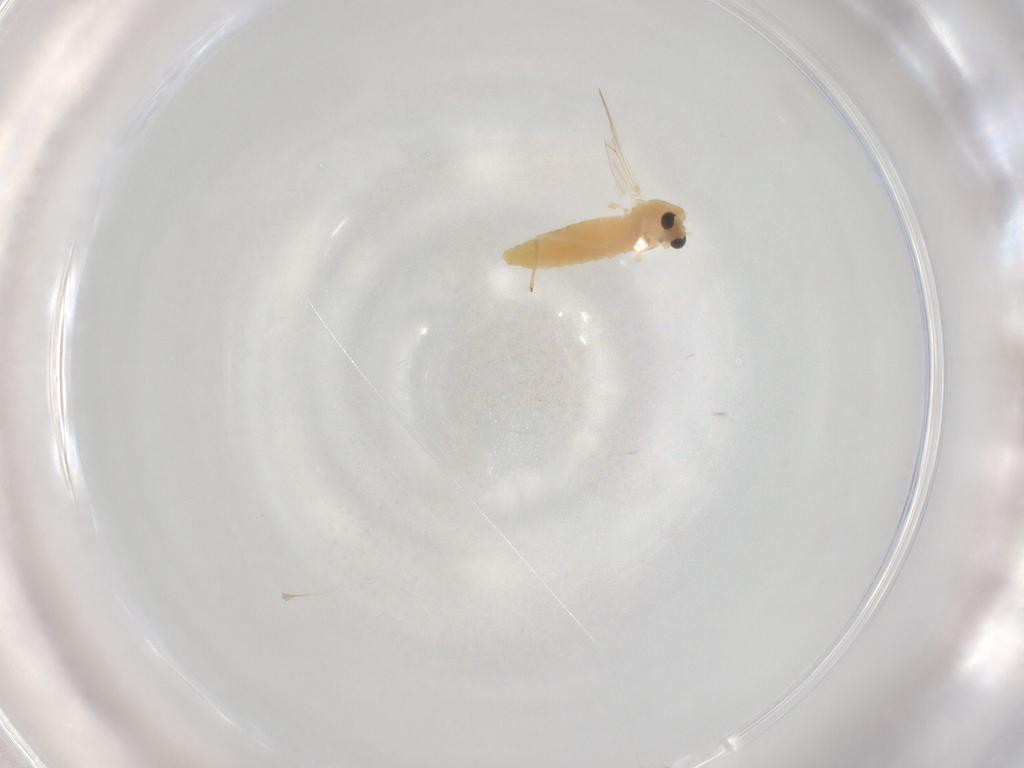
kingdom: Animalia
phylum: Arthropoda
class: Insecta
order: Diptera
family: Chironomidae
